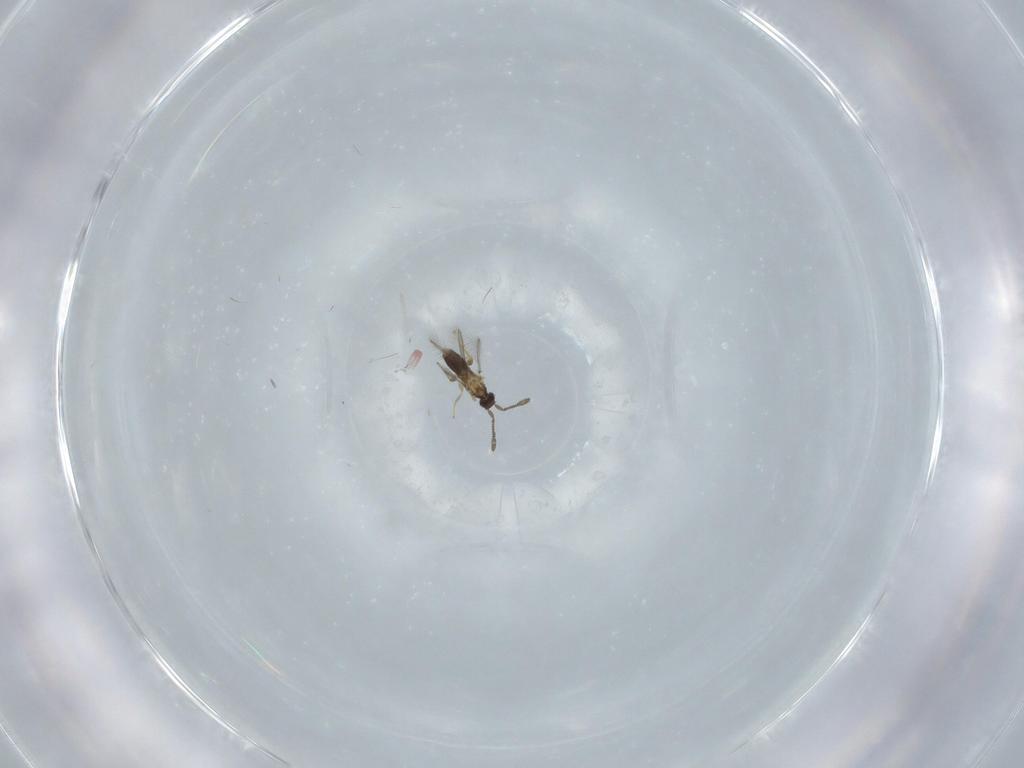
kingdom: Animalia
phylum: Arthropoda
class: Insecta
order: Hymenoptera
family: Mymaridae
